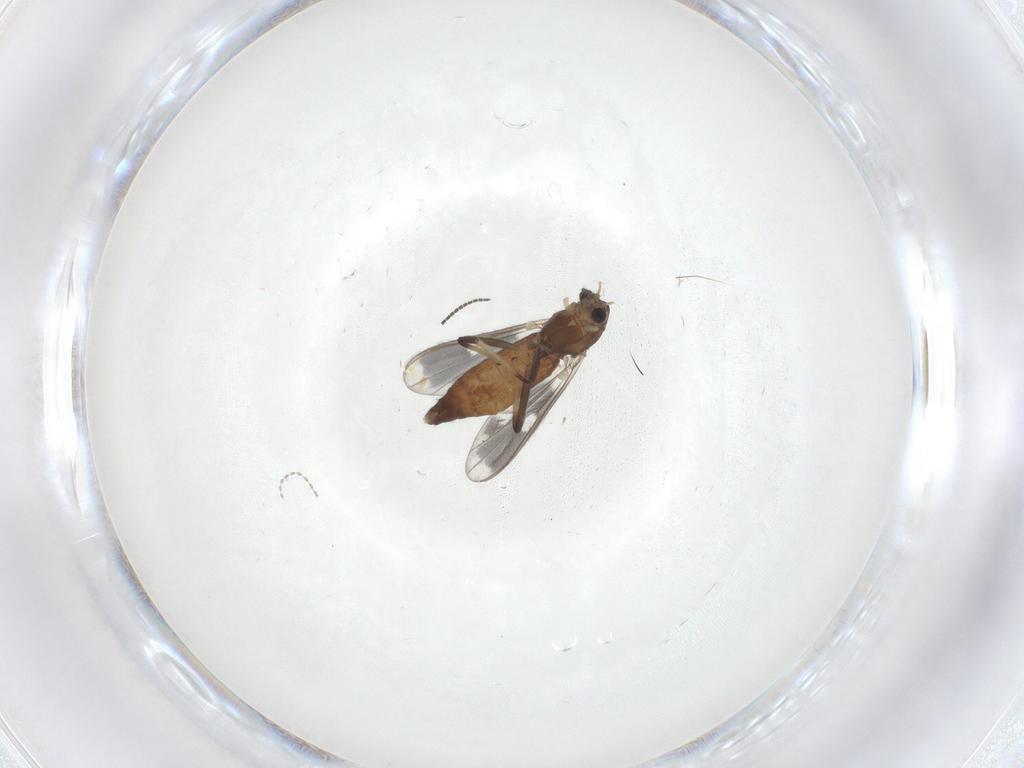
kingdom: Animalia
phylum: Arthropoda
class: Insecta
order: Diptera
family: Chironomidae
